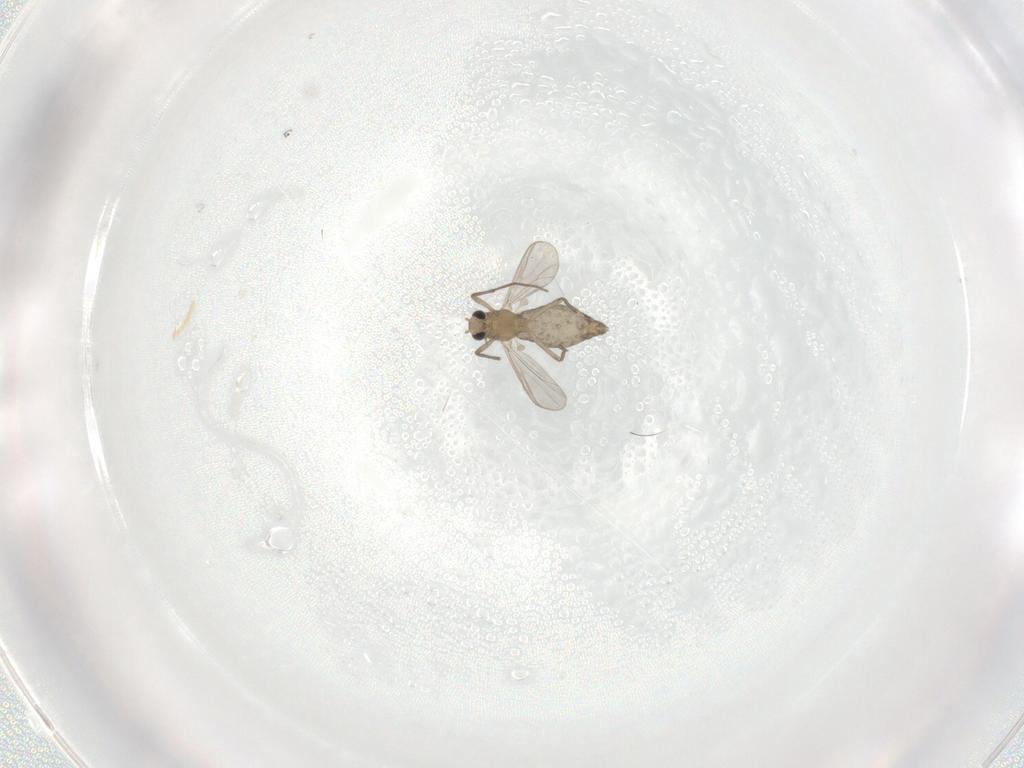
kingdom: Animalia
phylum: Arthropoda
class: Insecta
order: Diptera
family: Chironomidae
